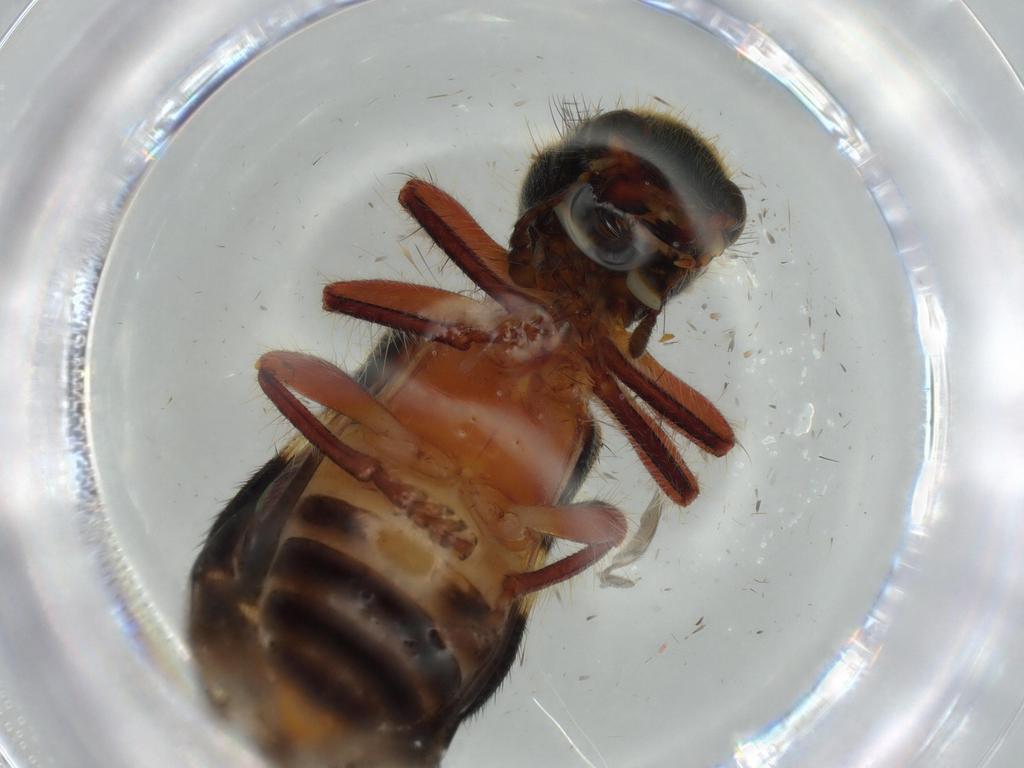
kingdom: Animalia
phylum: Arthropoda
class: Insecta
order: Coleoptera
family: Cleridae
